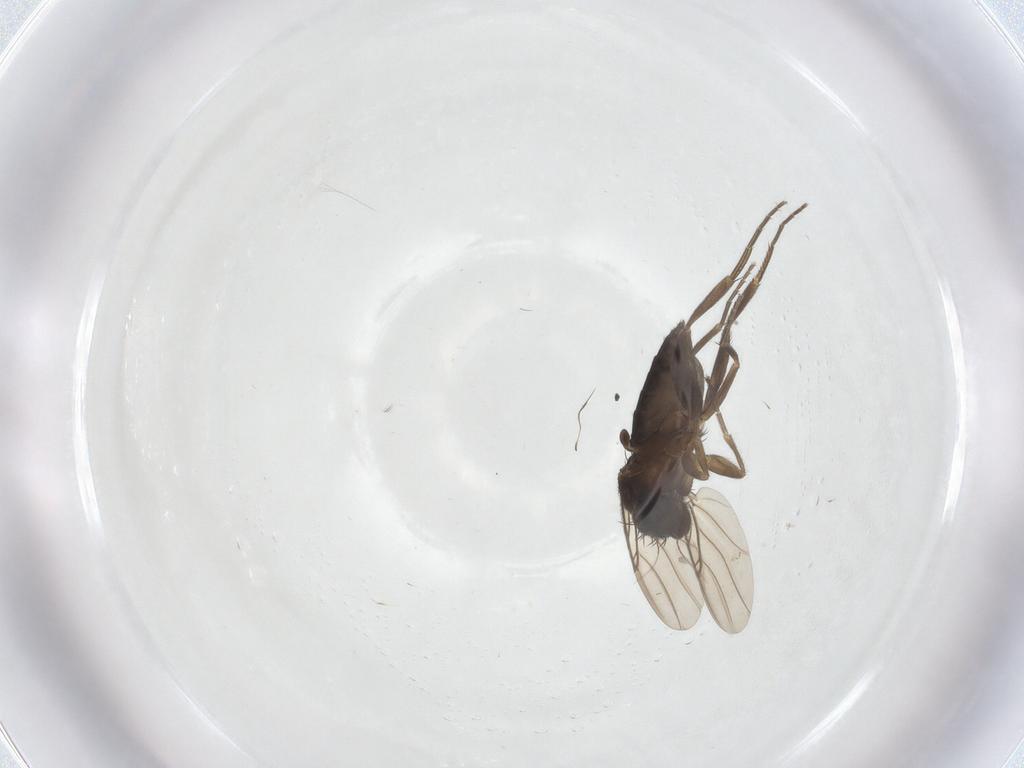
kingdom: Animalia
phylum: Arthropoda
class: Insecta
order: Diptera
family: Phoridae
